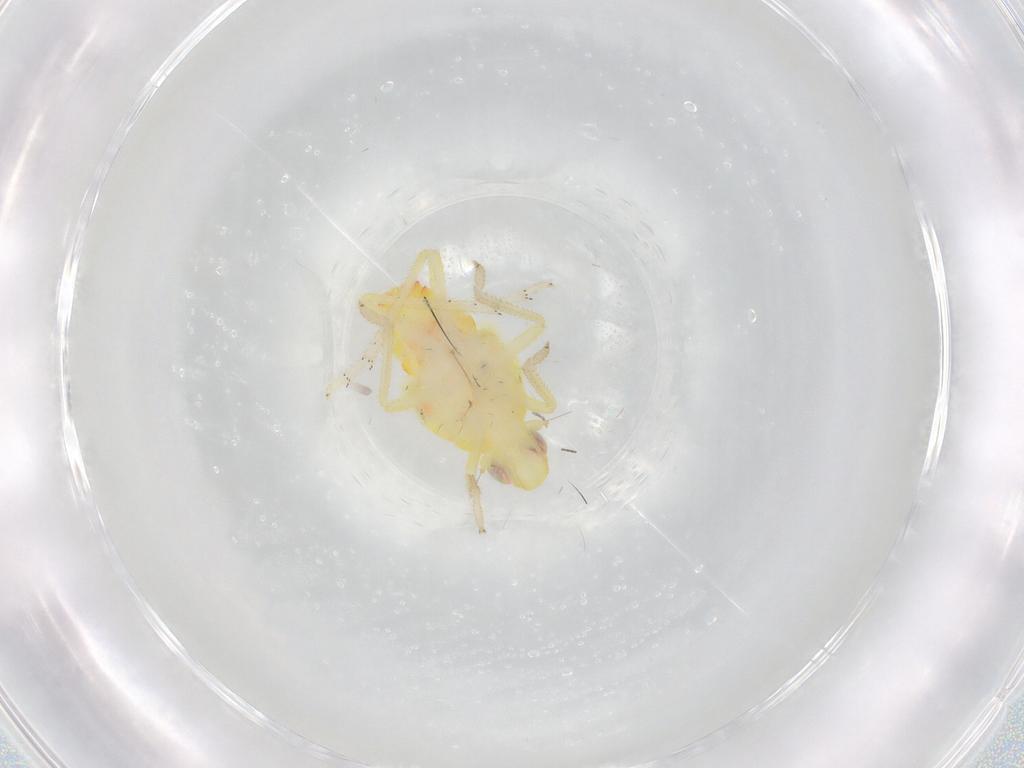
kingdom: Animalia
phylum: Arthropoda
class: Insecta
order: Hemiptera
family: Tropiduchidae
